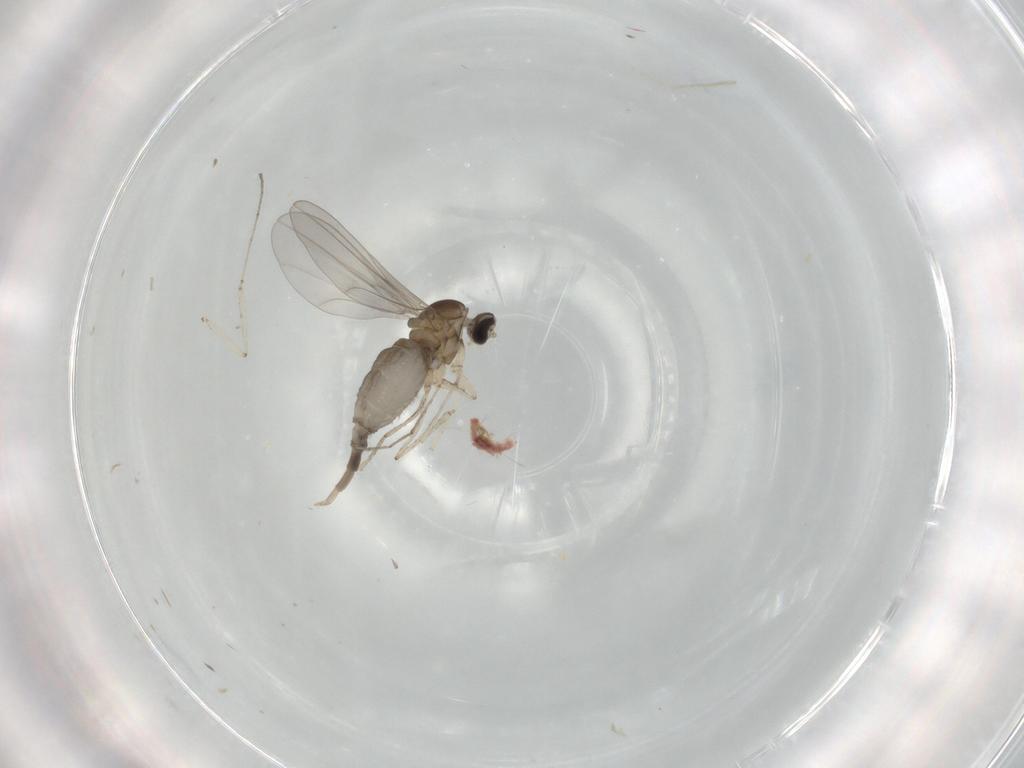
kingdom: Animalia
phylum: Arthropoda
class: Insecta
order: Diptera
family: Cecidomyiidae
